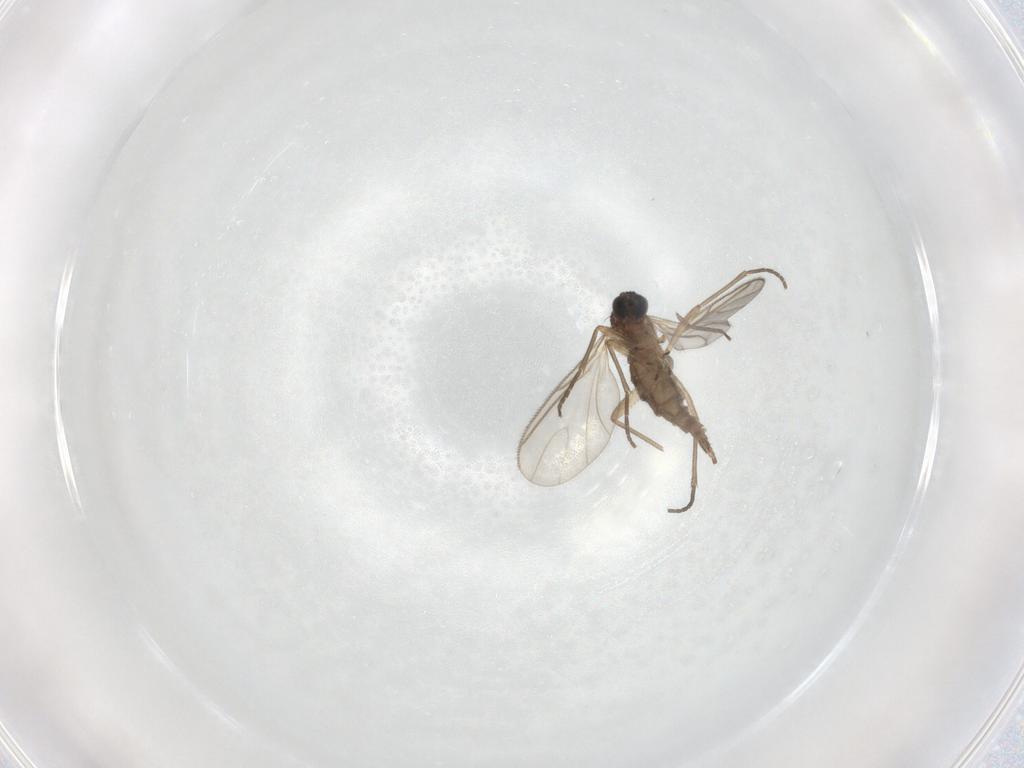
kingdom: Animalia
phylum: Arthropoda
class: Insecta
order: Diptera
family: Sciaridae
